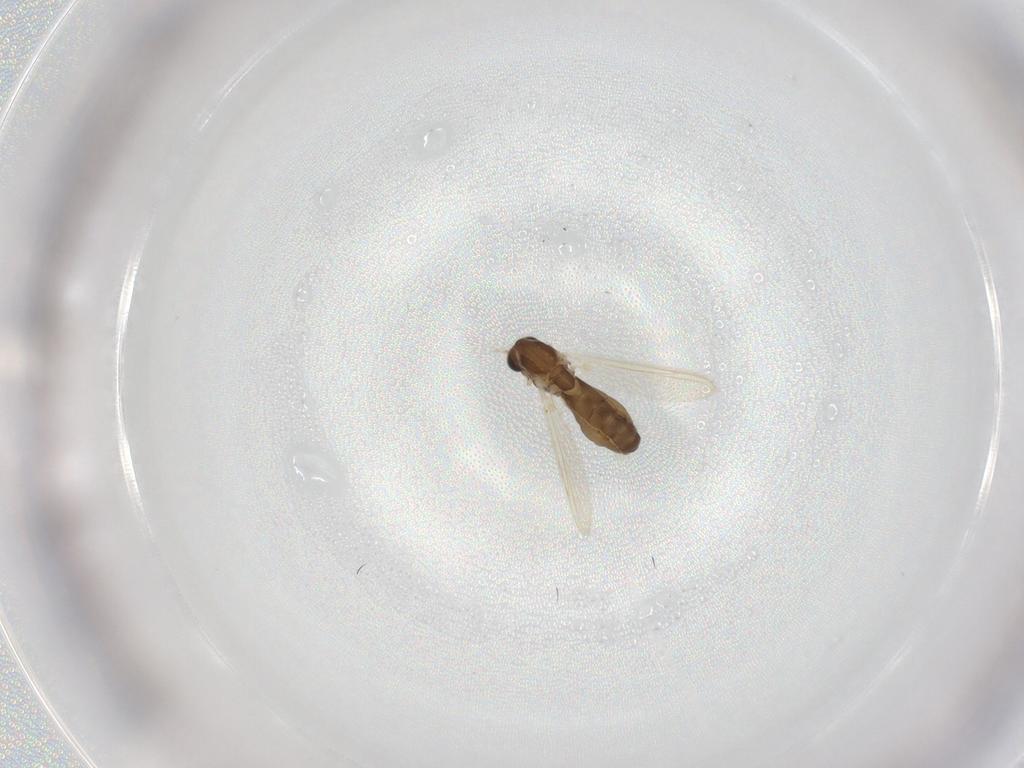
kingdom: Animalia
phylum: Arthropoda
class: Insecta
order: Diptera
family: Chironomidae
